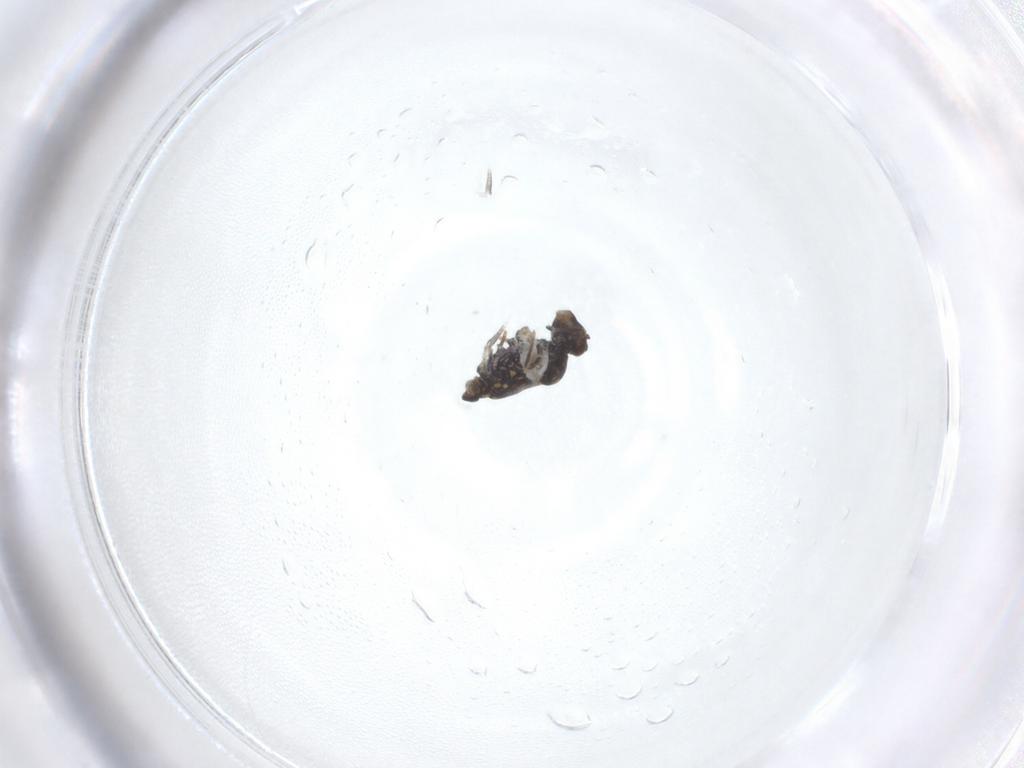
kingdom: Animalia
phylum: Arthropoda
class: Collembola
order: Symphypleona
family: Katiannidae
